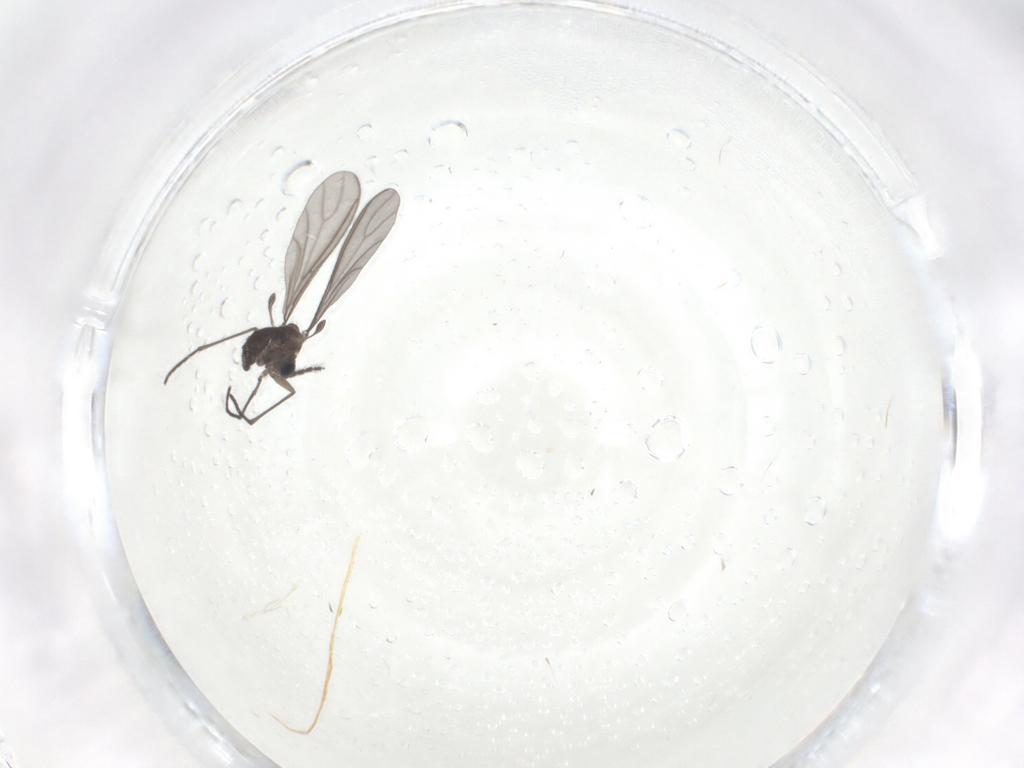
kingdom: Animalia
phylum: Arthropoda
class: Insecta
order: Diptera
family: Sciaridae
